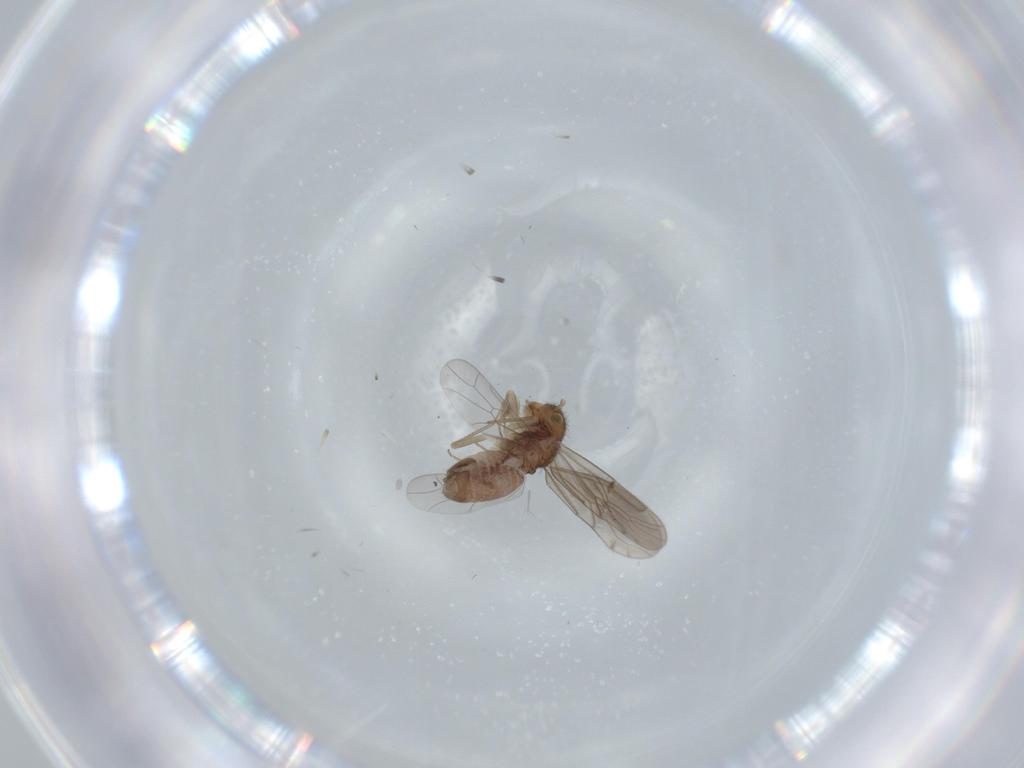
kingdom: Animalia
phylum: Arthropoda
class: Insecta
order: Psocodea
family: Ectopsocidae
